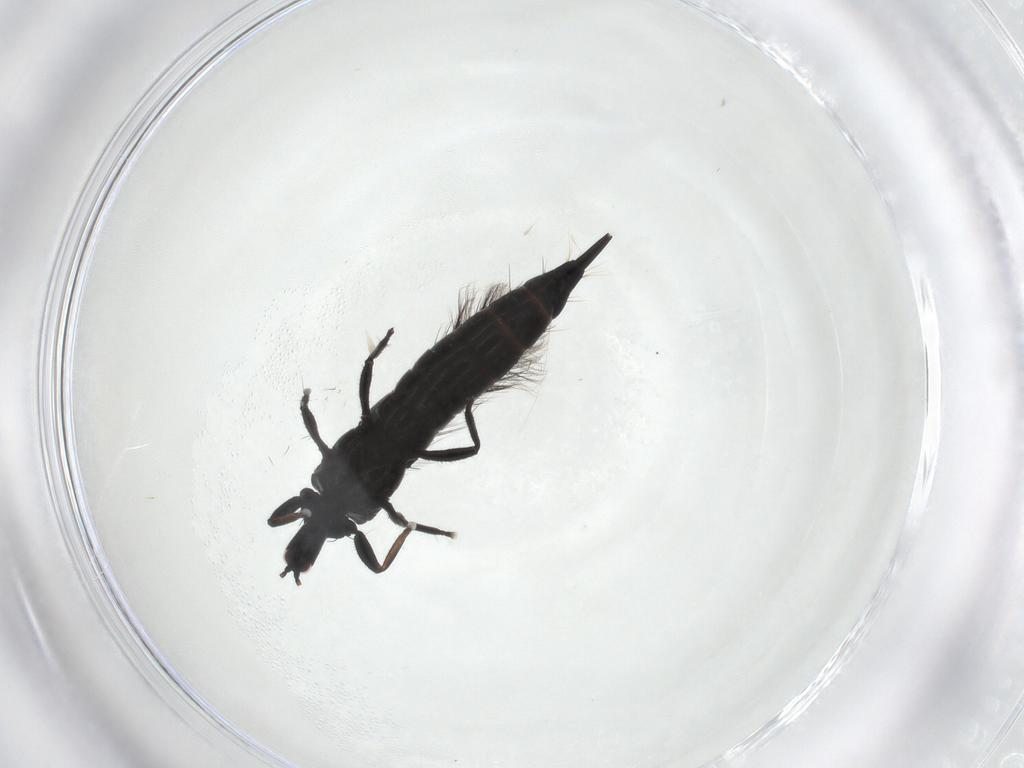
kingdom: Animalia
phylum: Arthropoda
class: Insecta
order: Thysanoptera
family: Phlaeothripidae
